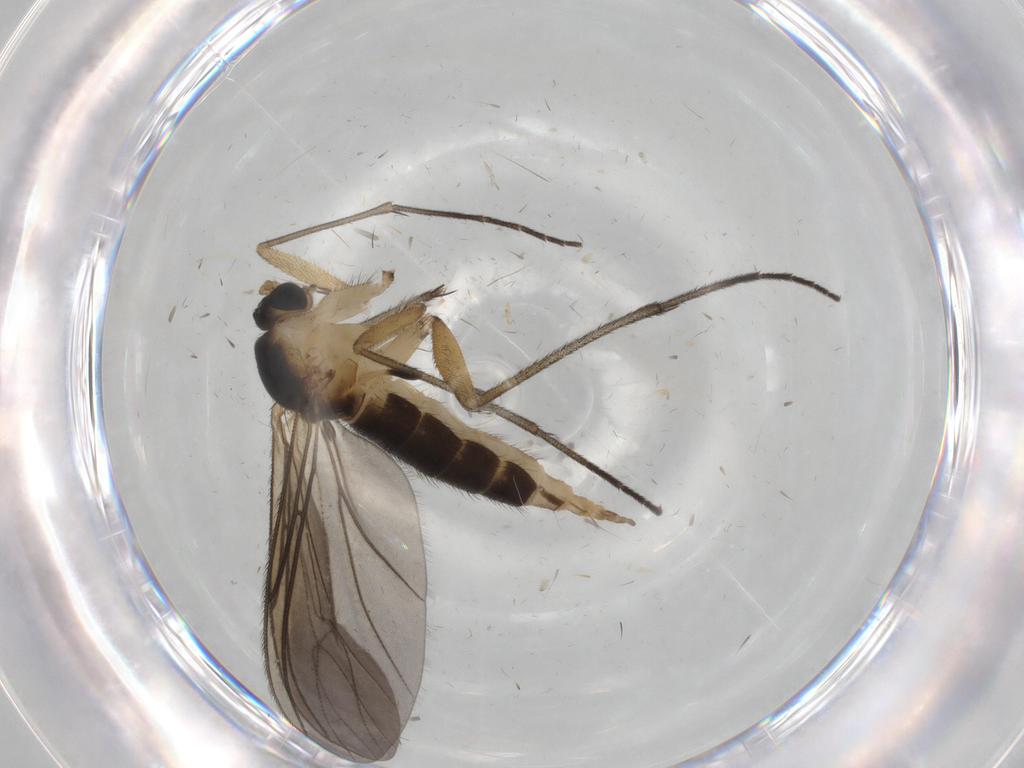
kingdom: Animalia
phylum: Arthropoda
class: Insecta
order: Diptera
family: Sciaridae
